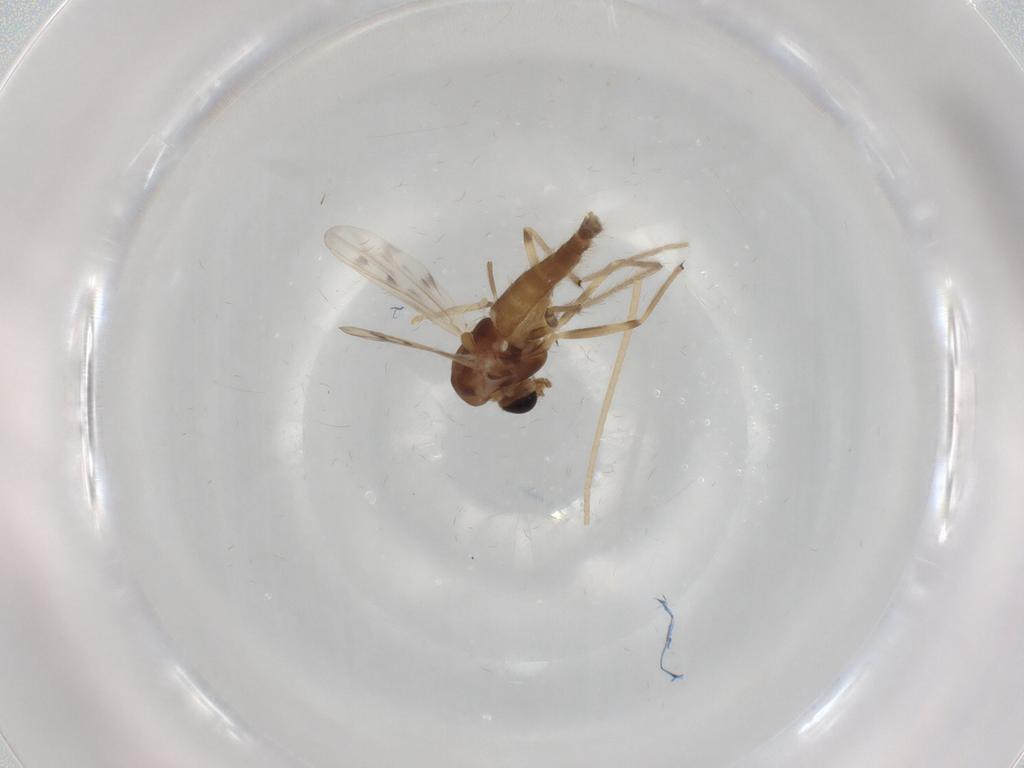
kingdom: Animalia
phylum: Arthropoda
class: Insecta
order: Diptera
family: Chironomidae
